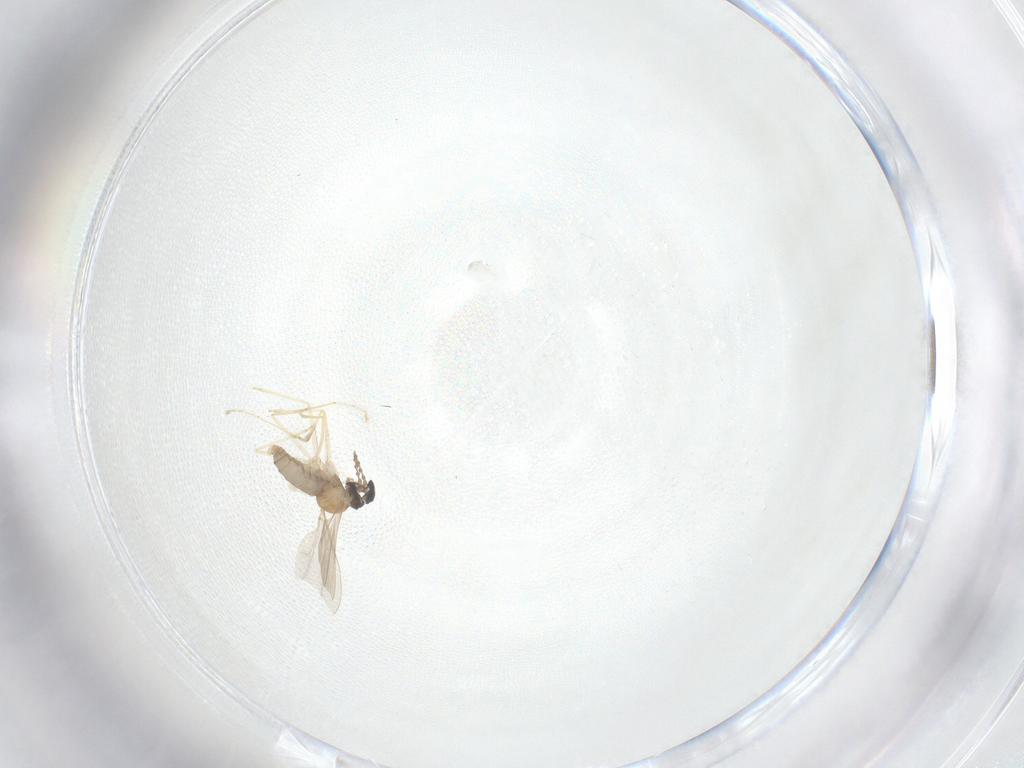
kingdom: Animalia
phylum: Arthropoda
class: Insecta
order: Diptera
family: Cecidomyiidae
